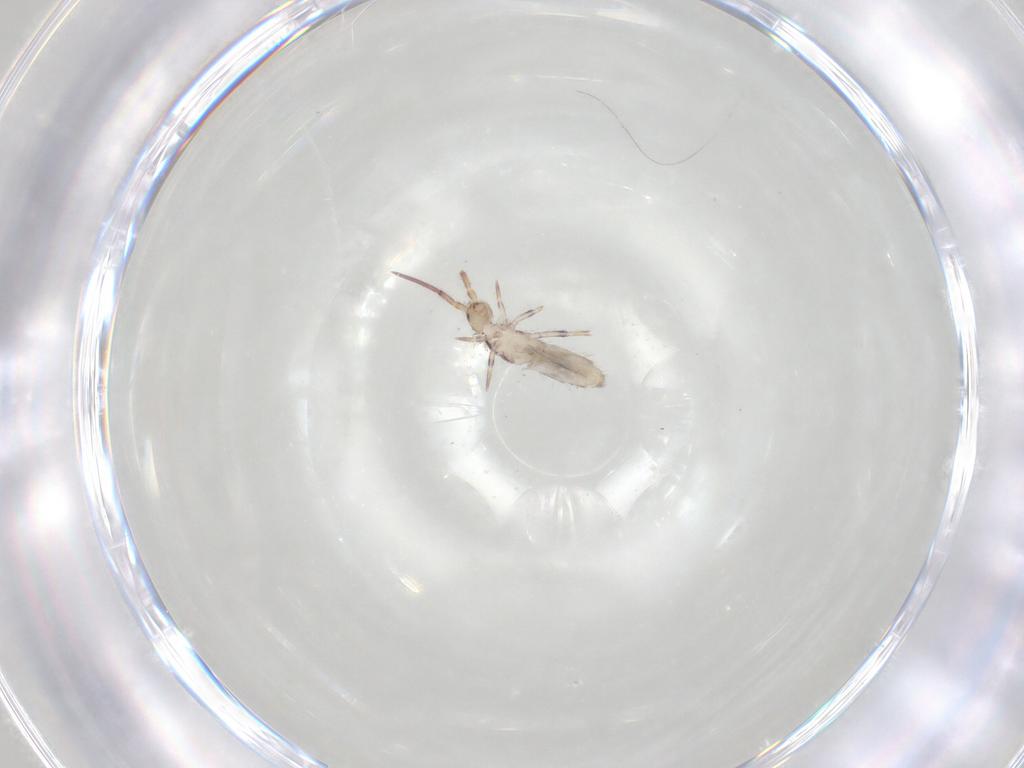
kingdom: Animalia
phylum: Arthropoda
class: Collembola
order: Entomobryomorpha
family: Entomobryidae
